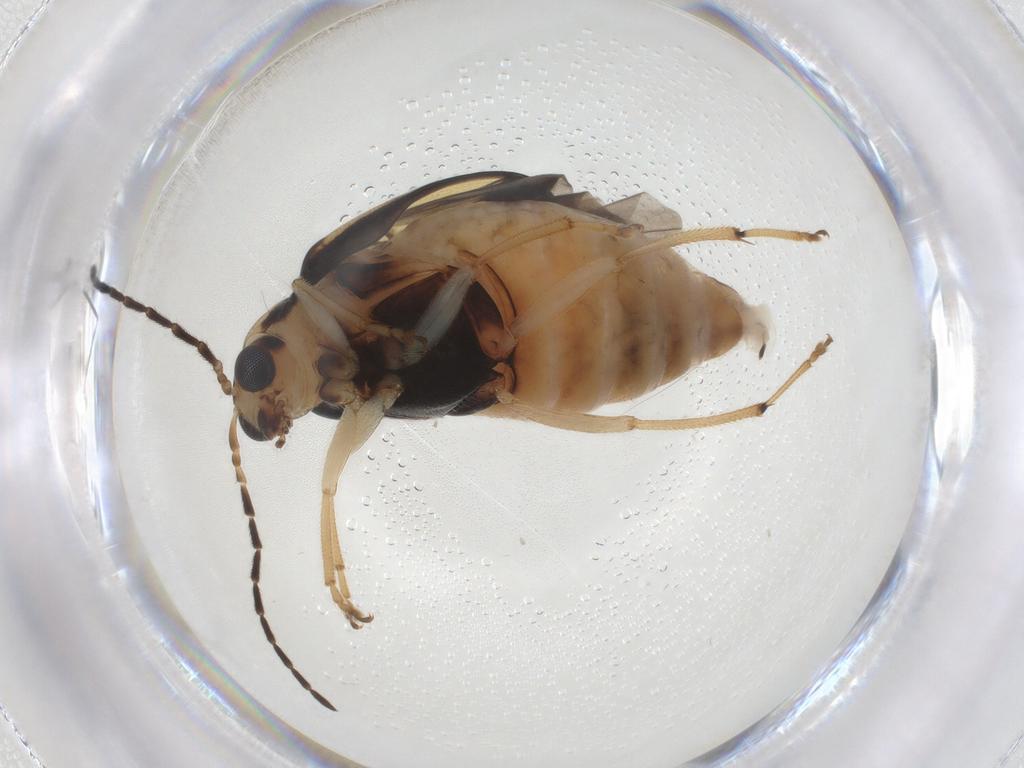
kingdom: Animalia
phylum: Arthropoda
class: Insecta
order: Coleoptera
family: Chrysomelidae
